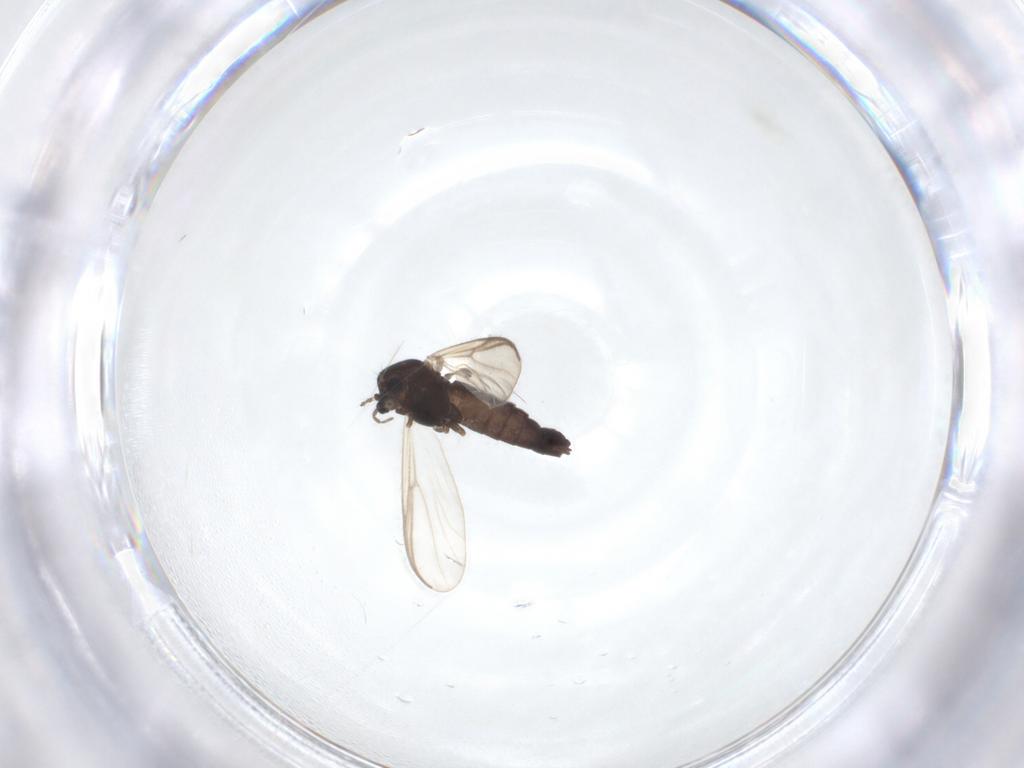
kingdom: Animalia
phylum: Arthropoda
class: Insecta
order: Diptera
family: Chironomidae
